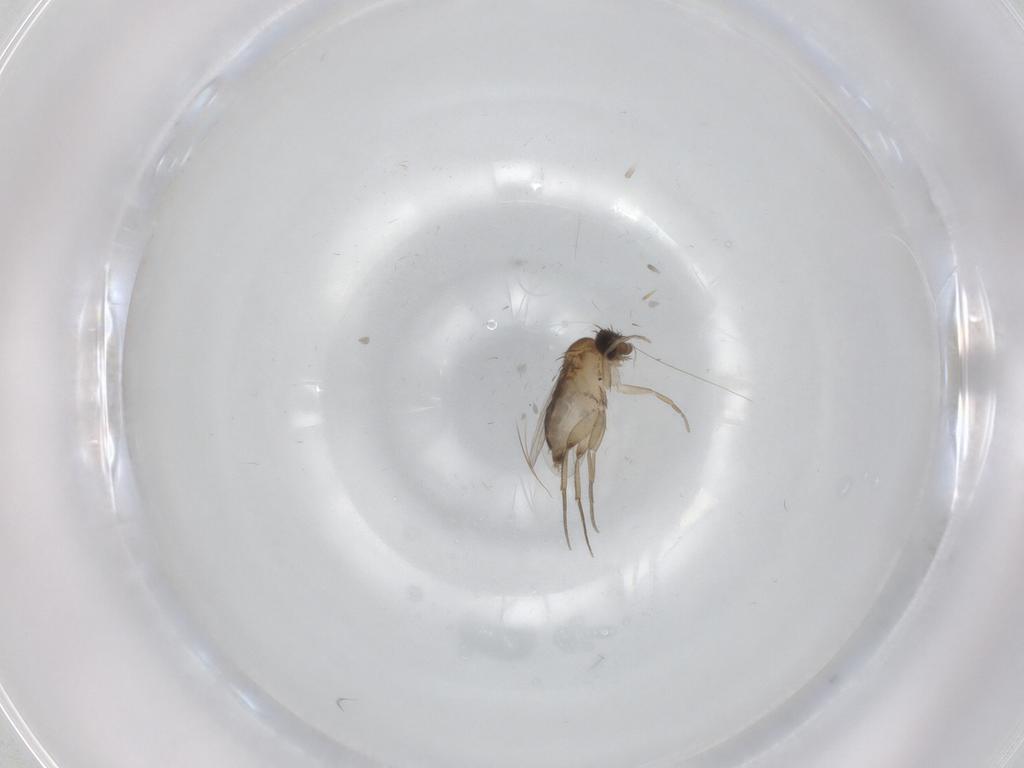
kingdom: Animalia
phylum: Arthropoda
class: Insecta
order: Diptera
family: Phoridae
